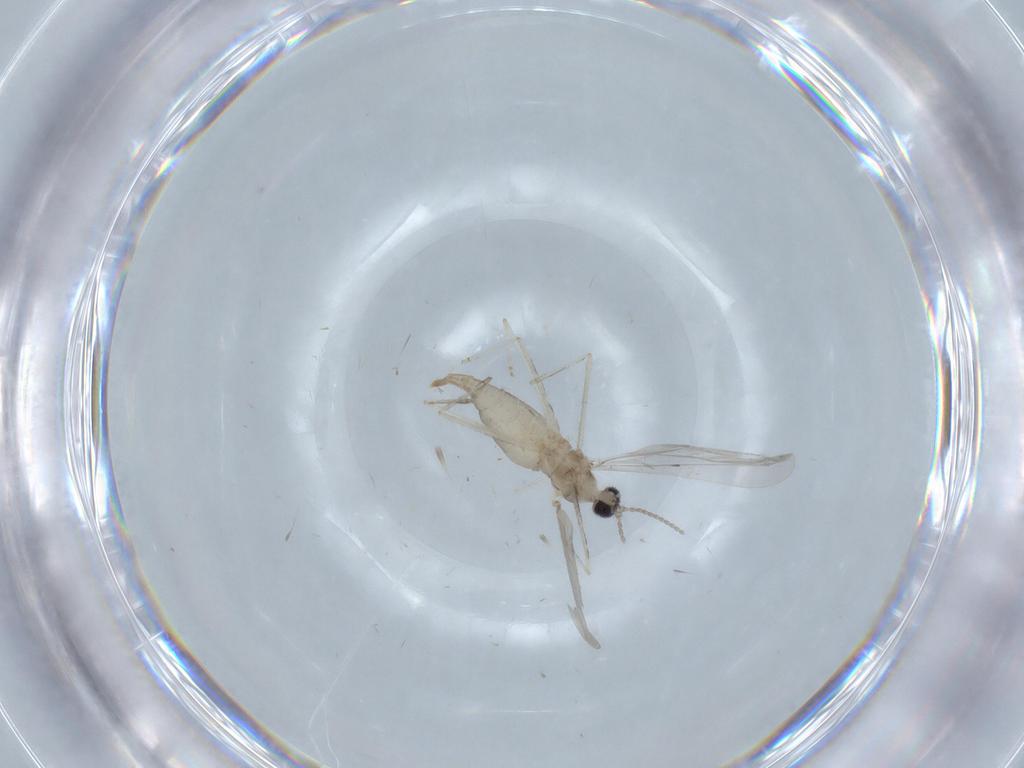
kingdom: Animalia
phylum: Arthropoda
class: Insecta
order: Diptera
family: Cecidomyiidae
